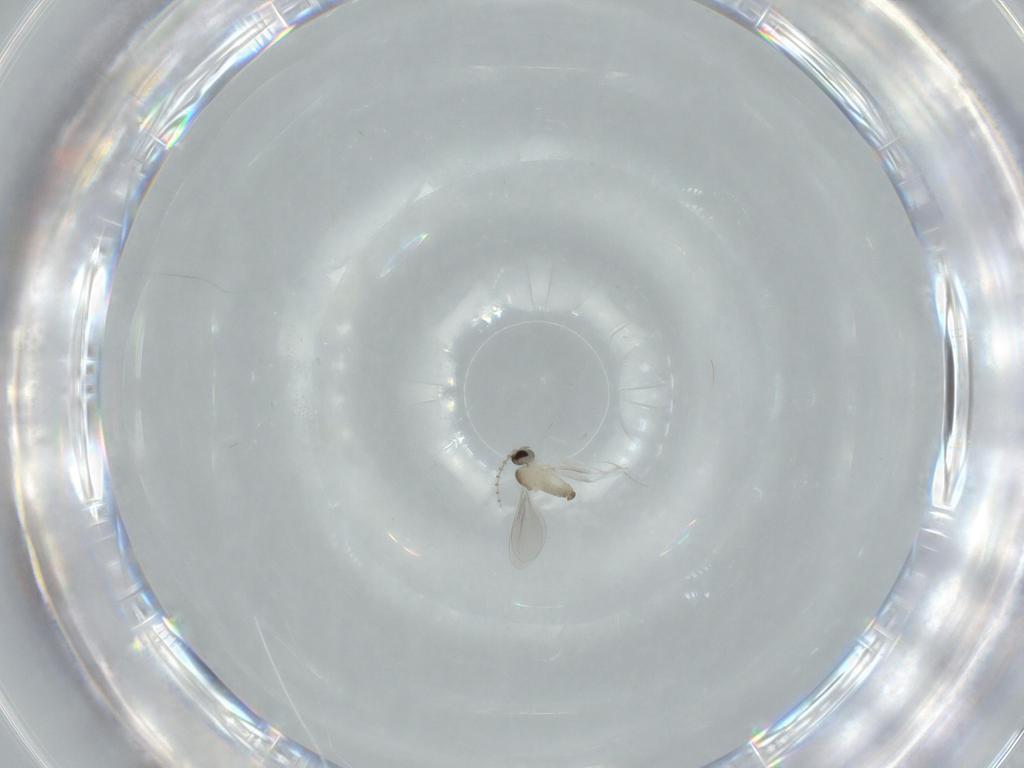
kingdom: Animalia
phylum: Arthropoda
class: Insecta
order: Diptera
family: Cecidomyiidae
